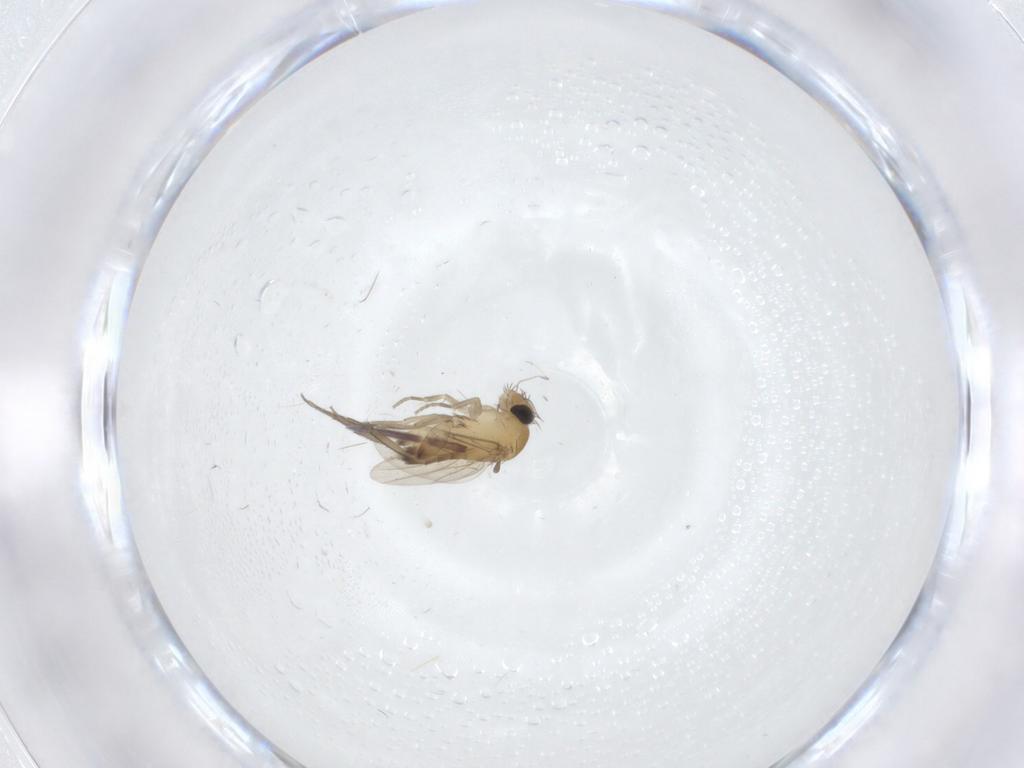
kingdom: Animalia
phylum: Arthropoda
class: Insecta
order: Diptera
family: Phoridae
